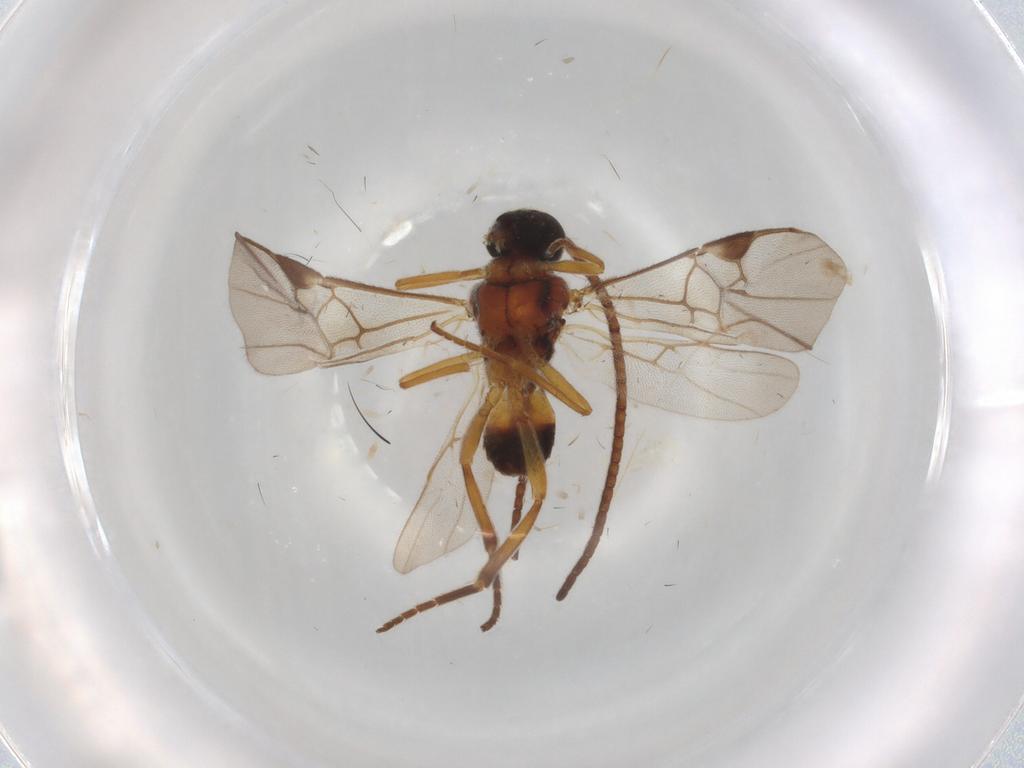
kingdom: Animalia
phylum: Arthropoda
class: Insecta
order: Hymenoptera
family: Braconidae
